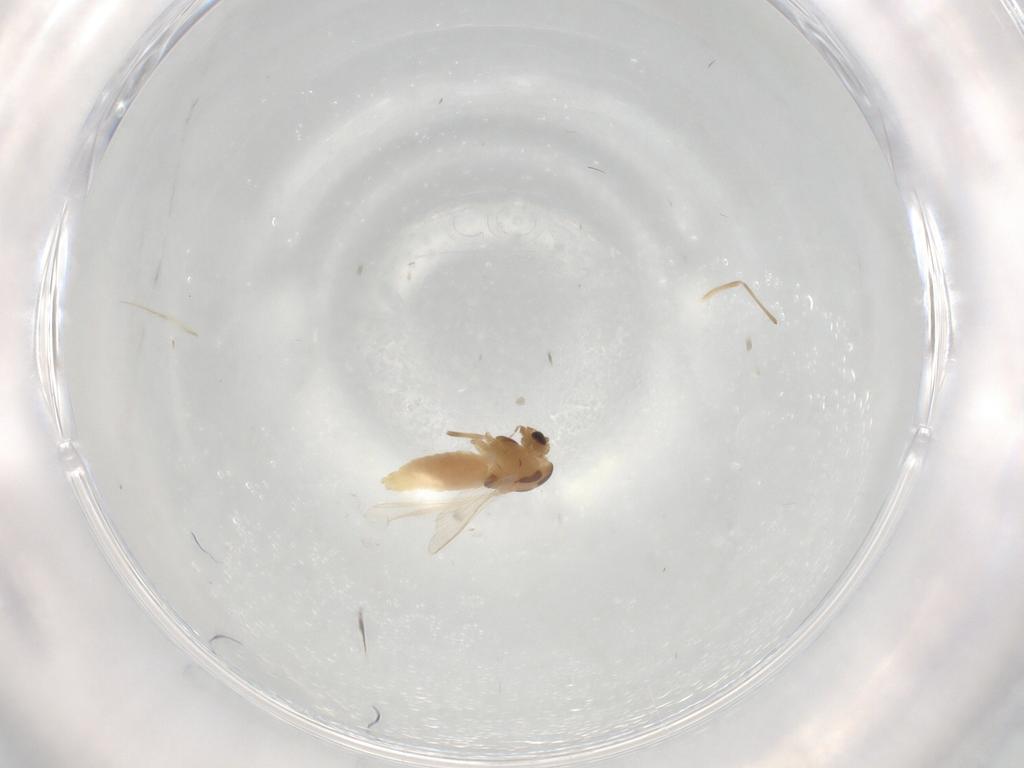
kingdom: Animalia
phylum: Arthropoda
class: Insecta
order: Diptera
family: Chironomidae
